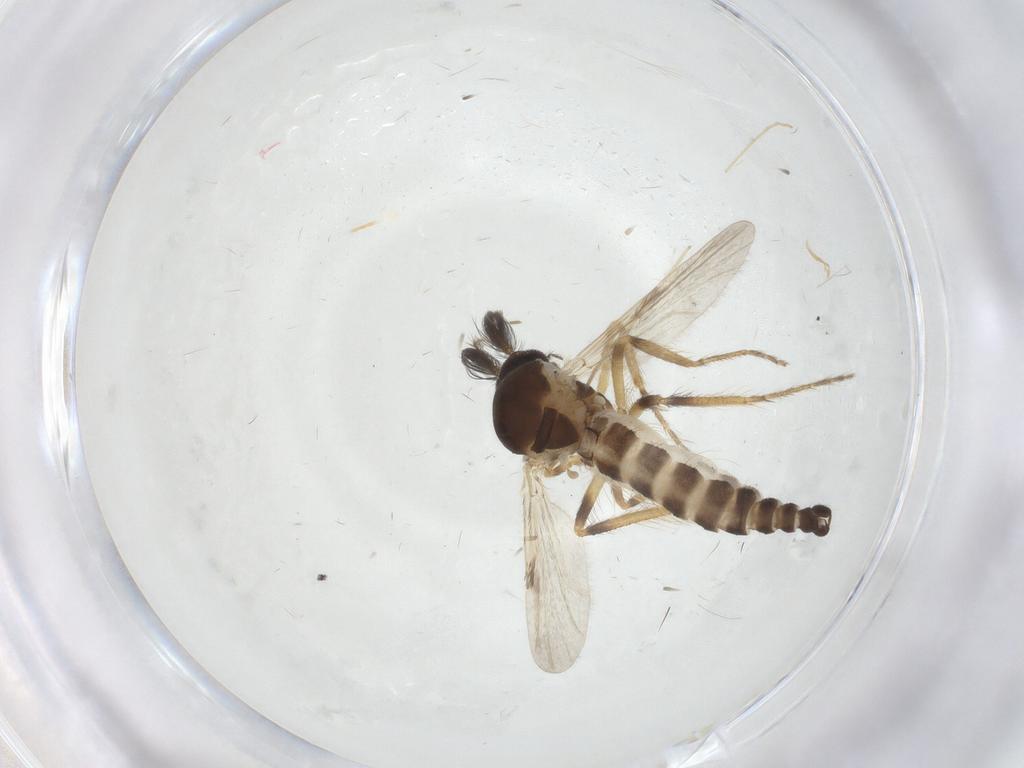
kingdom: Animalia
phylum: Arthropoda
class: Insecta
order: Diptera
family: Ceratopogonidae
